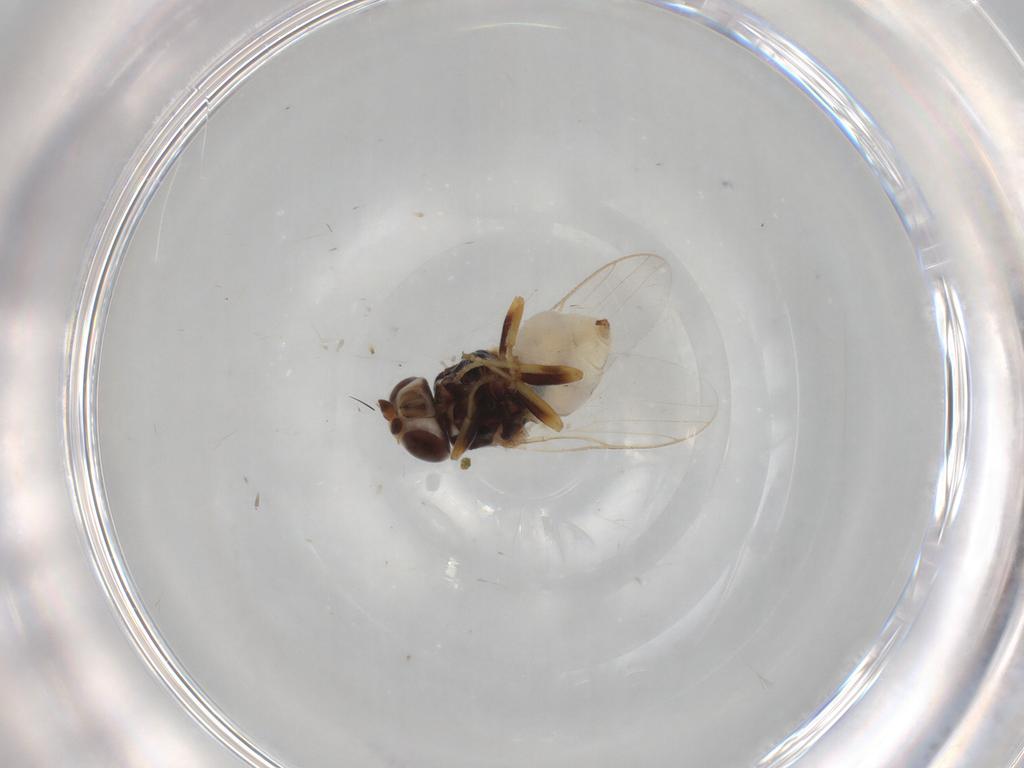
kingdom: Animalia
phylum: Arthropoda
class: Insecta
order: Diptera
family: Chloropidae
